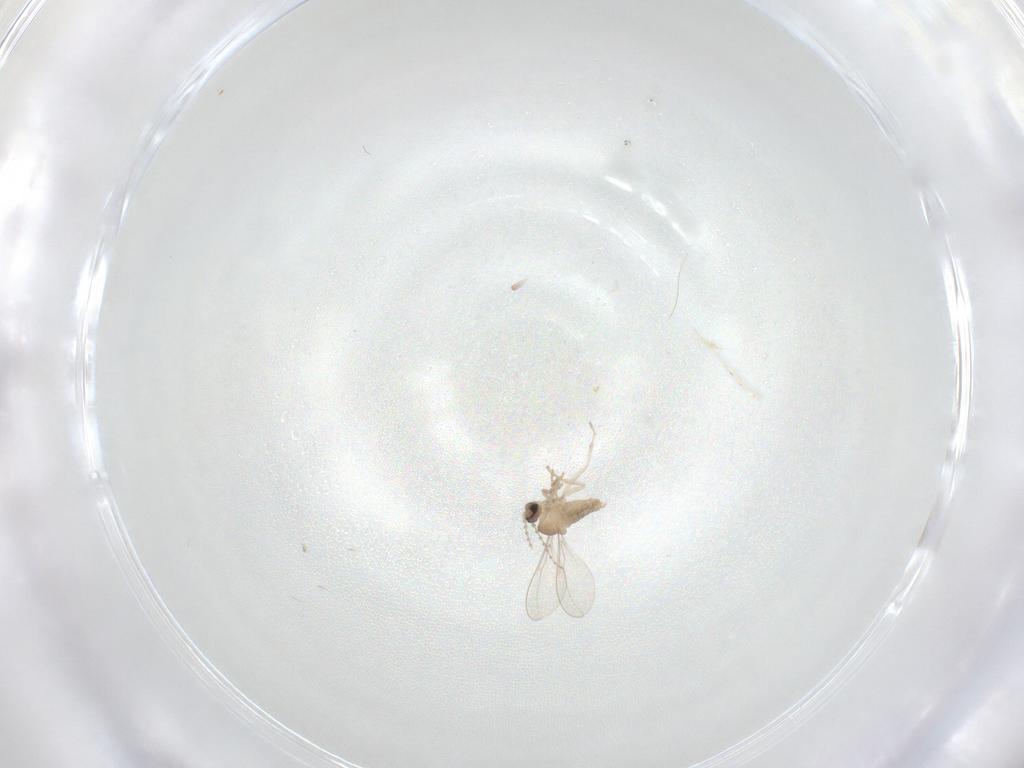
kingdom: Animalia
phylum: Arthropoda
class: Insecta
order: Diptera
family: Cecidomyiidae
